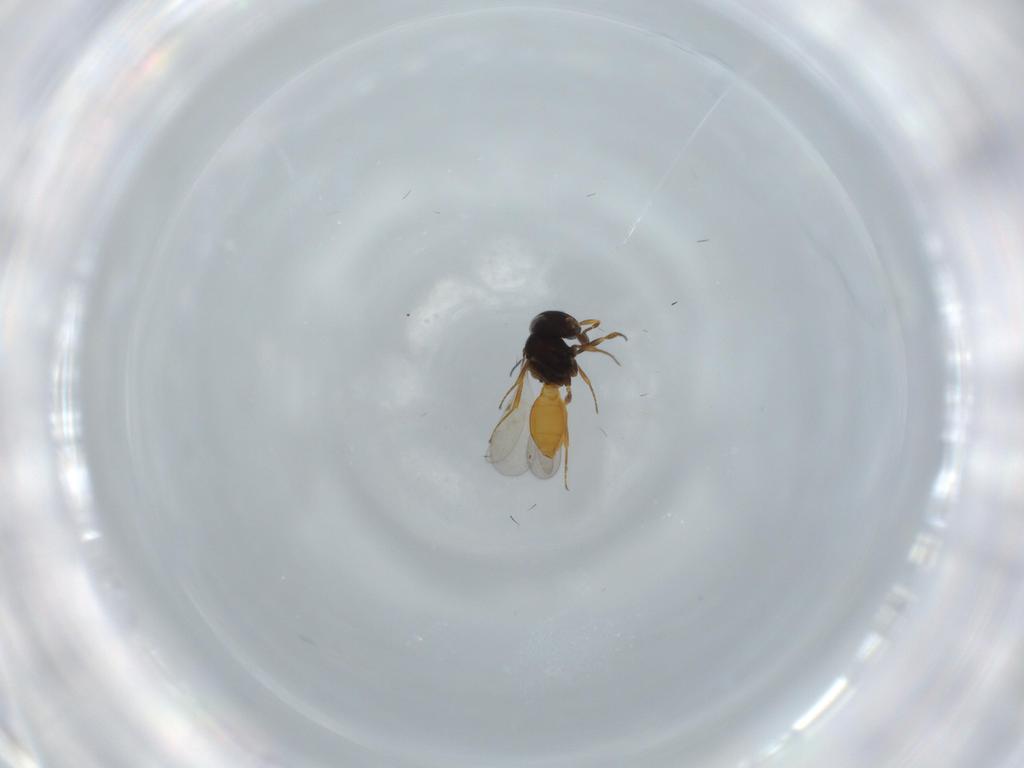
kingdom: Animalia
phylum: Arthropoda
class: Insecta
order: Hymenoptera
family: Scelionidae
